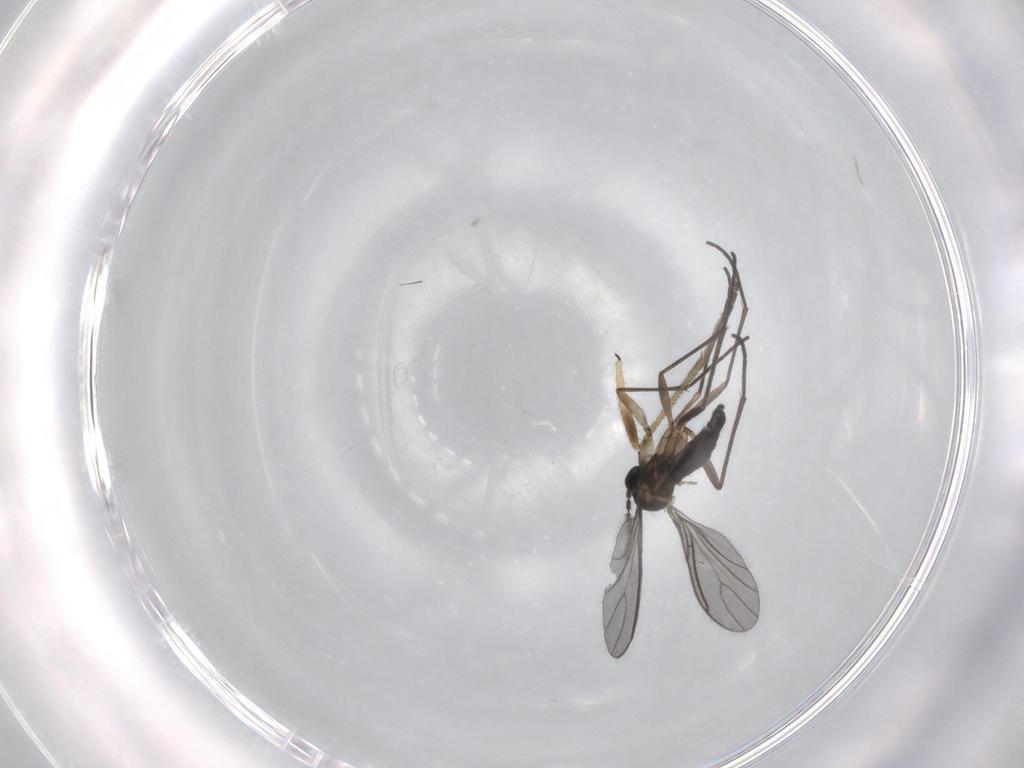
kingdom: Animalia
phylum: Arthropoda
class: Insecta
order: Diptera
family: Sciaridae
